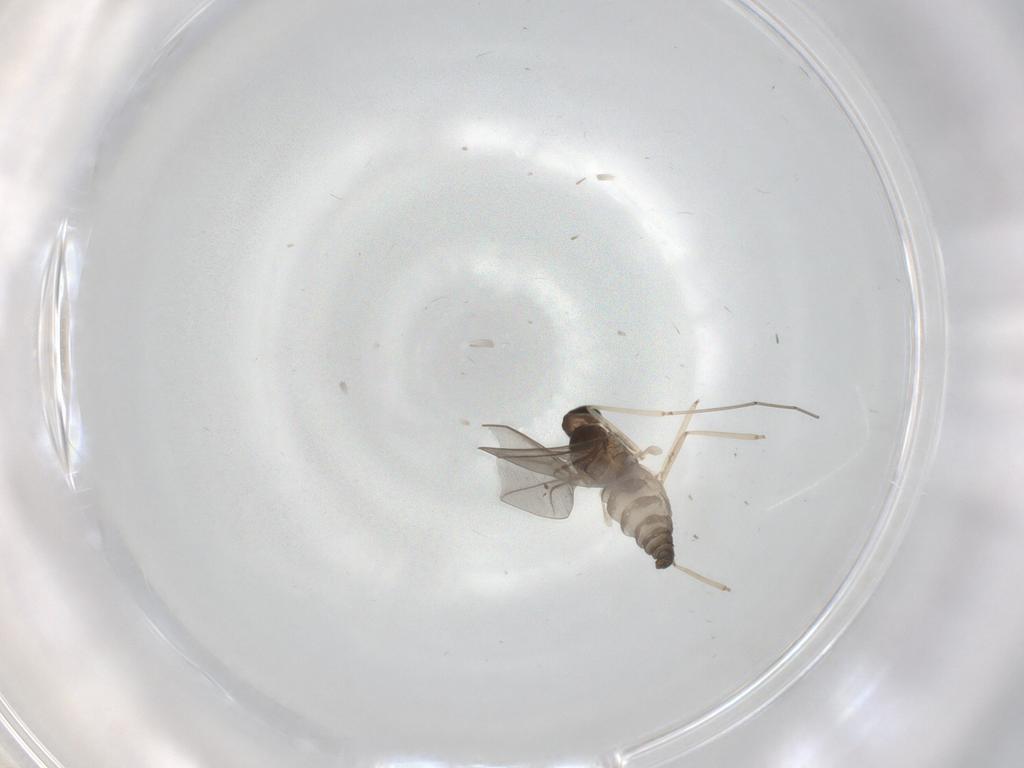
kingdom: Animalia
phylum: Arthropoda
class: Insecta
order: Diptera
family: Cecidomyiidae
